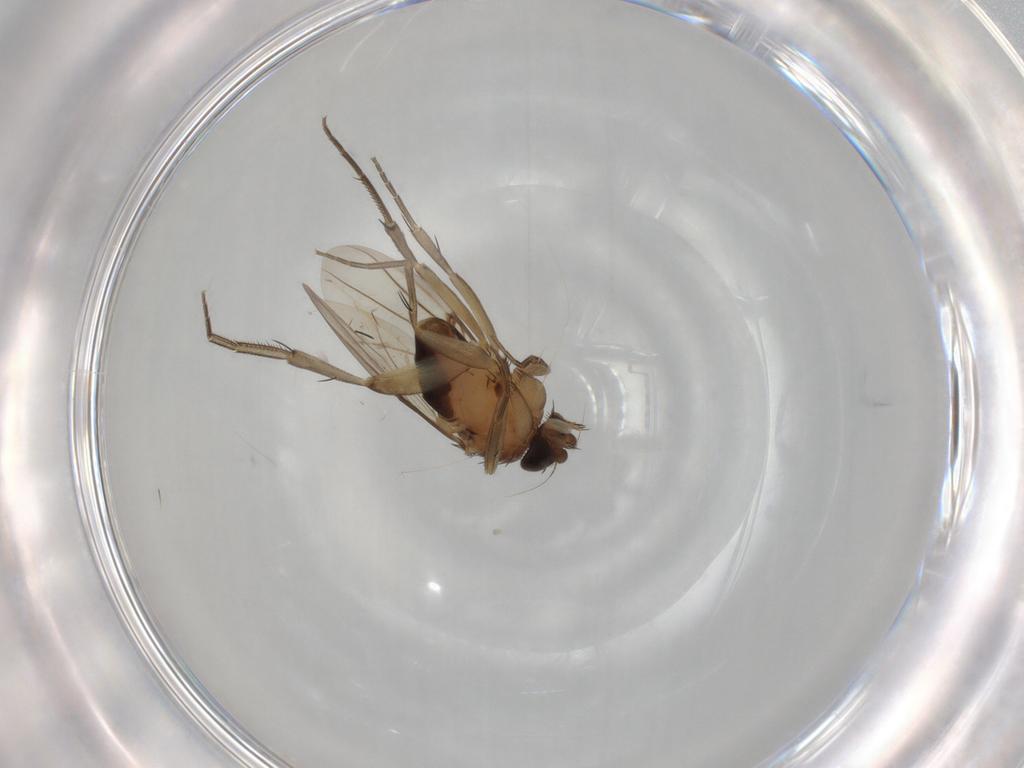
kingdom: Animalia
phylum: Arthropoda
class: Insecta
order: Diptera
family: Phoridae
